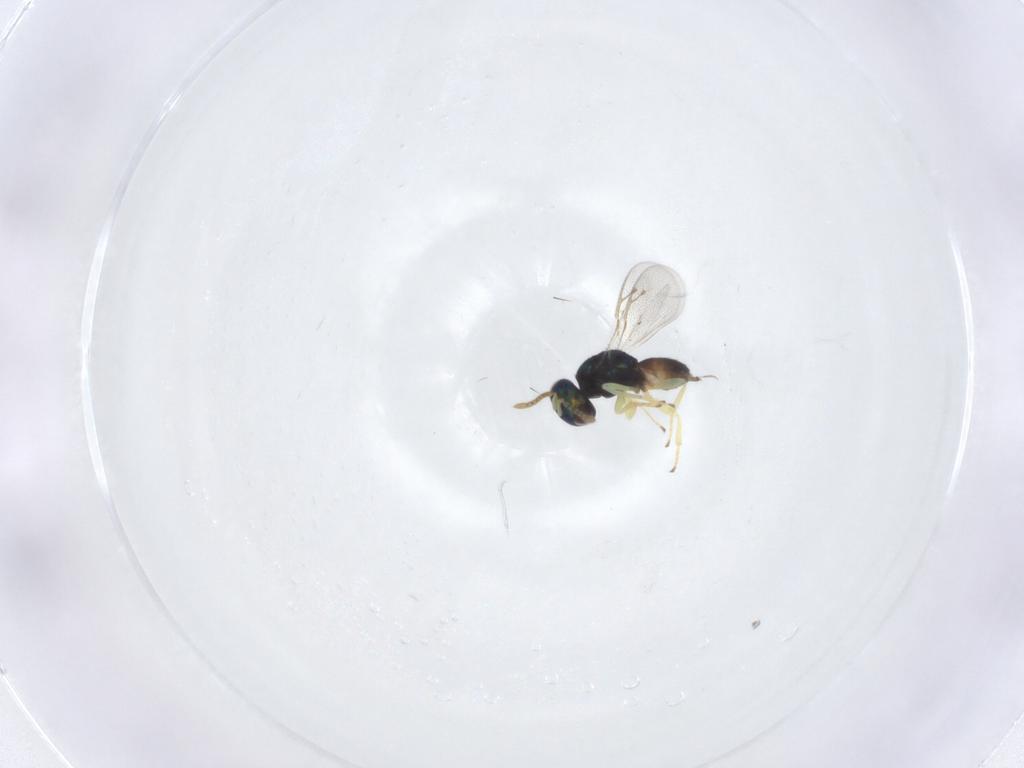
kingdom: Animalia
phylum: Arthropoda
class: Insecta
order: Hymenoptera
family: Pteromalidae
